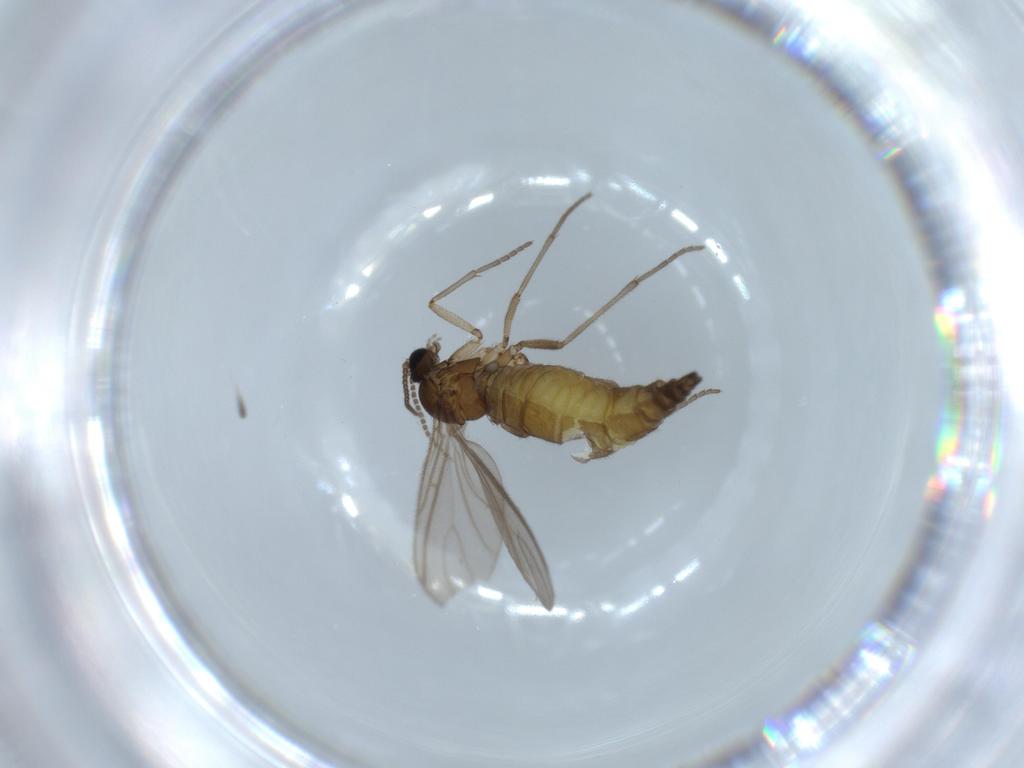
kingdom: Animalia
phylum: Arthropoda
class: Insecta
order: Diptera
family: Sciaridae
